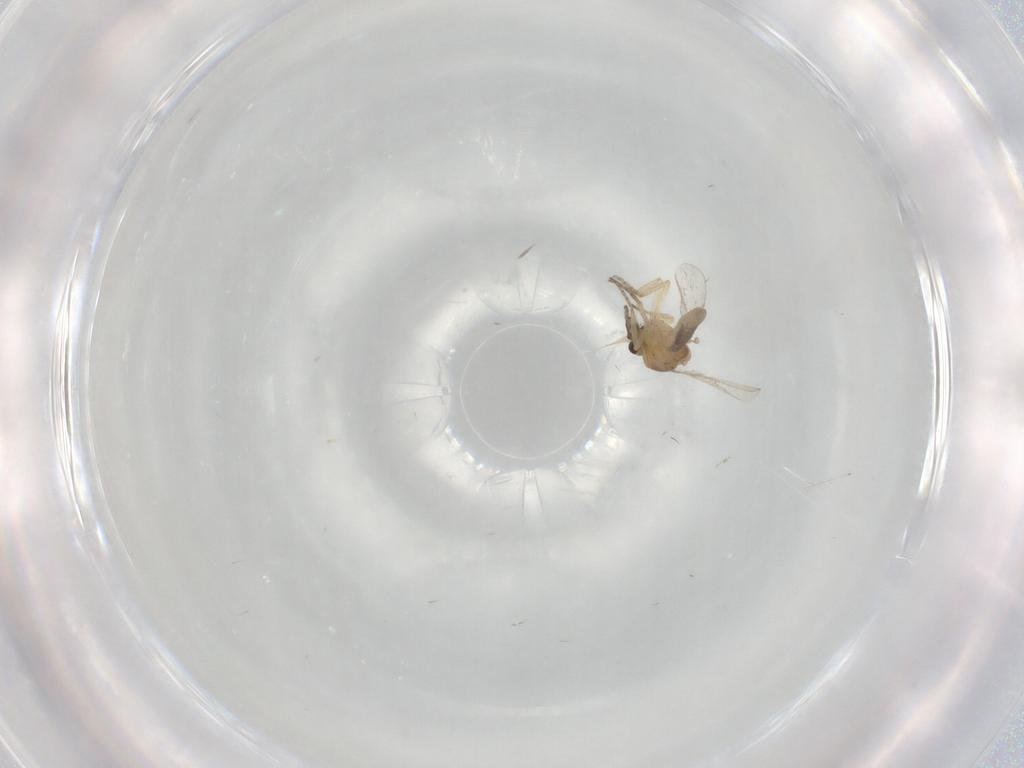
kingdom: Animalia
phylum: Arthropoda
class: Insecta
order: Diptera
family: Ceratopogonidae
